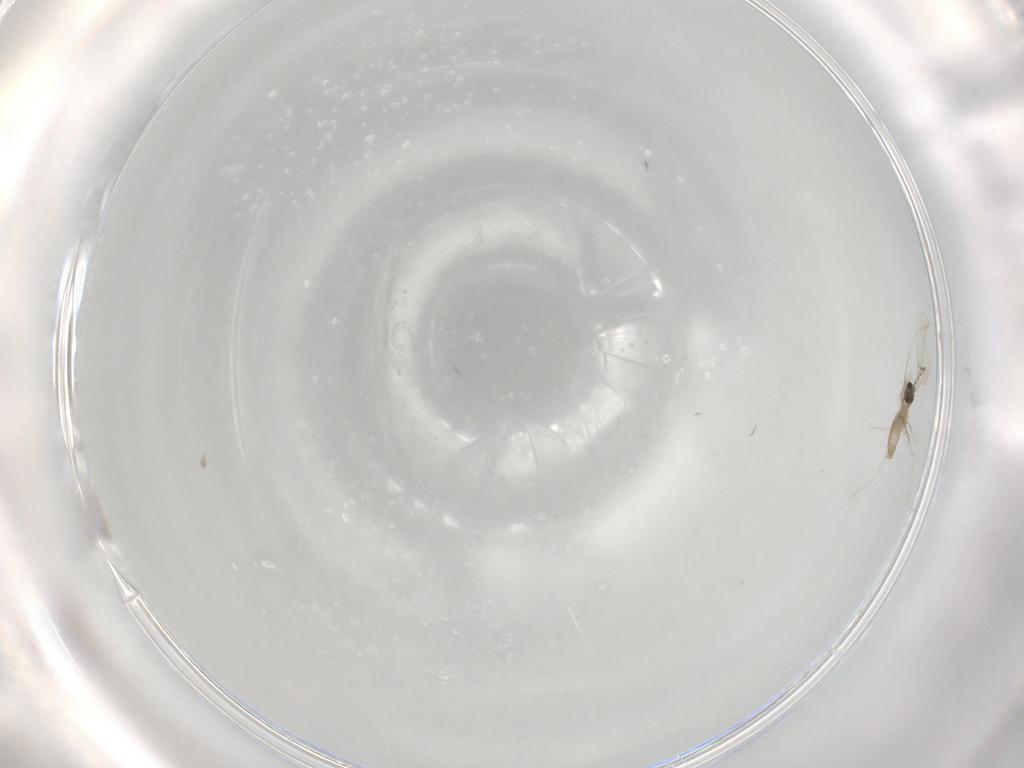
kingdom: Animalia
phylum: Arthropoda
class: Insecta
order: Diptera
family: Cecidomyiidae
